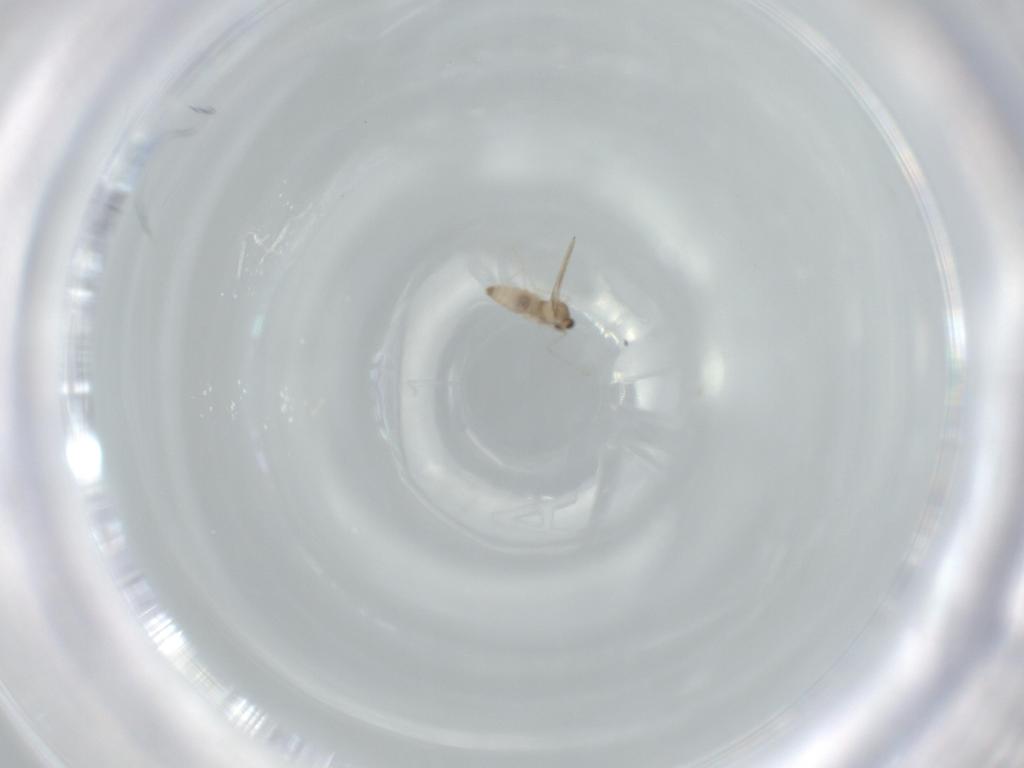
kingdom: Animalia
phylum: Arthropoda
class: Insecta
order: Diptera
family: Cecidomyiidae
